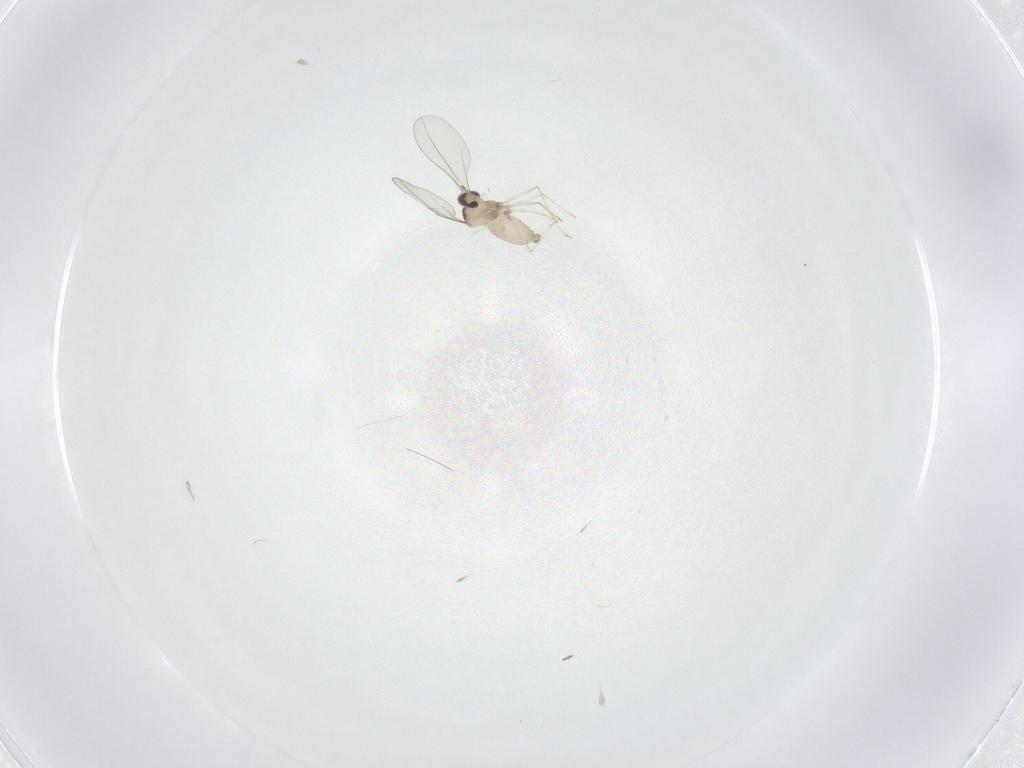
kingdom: Animalia
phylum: Arthropoda
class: Insecta
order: Diptera
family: Cecidomyiidae
